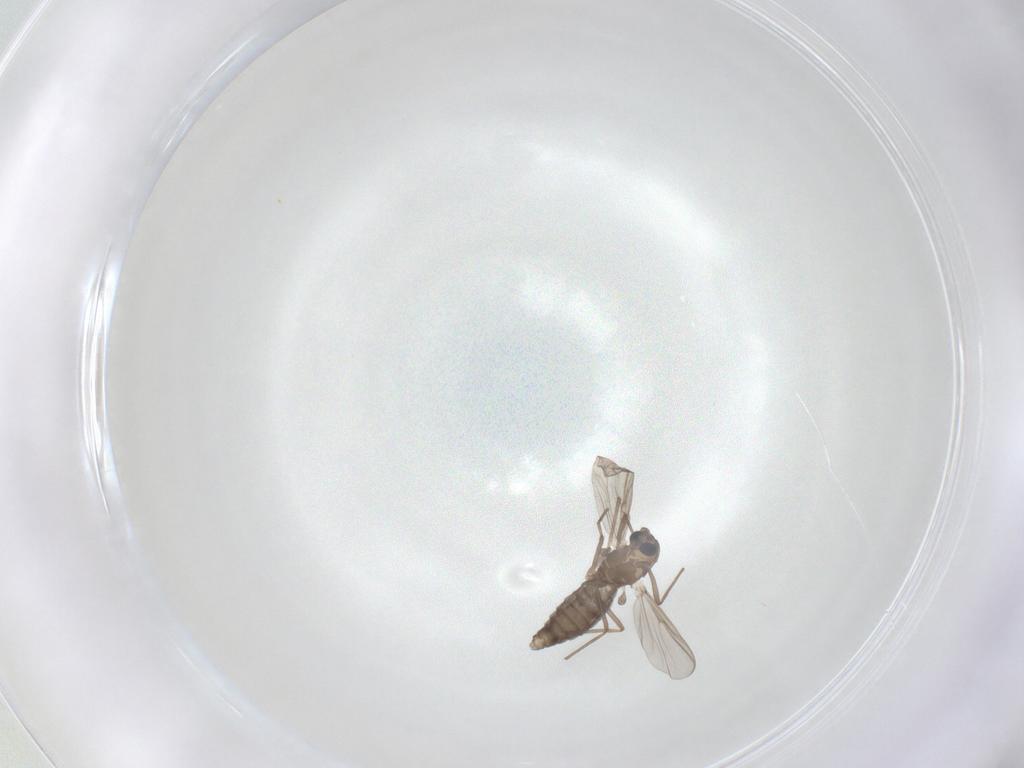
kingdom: Animalia
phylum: Arthropoda
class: Insecta
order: Diptera
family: Chironomidae
